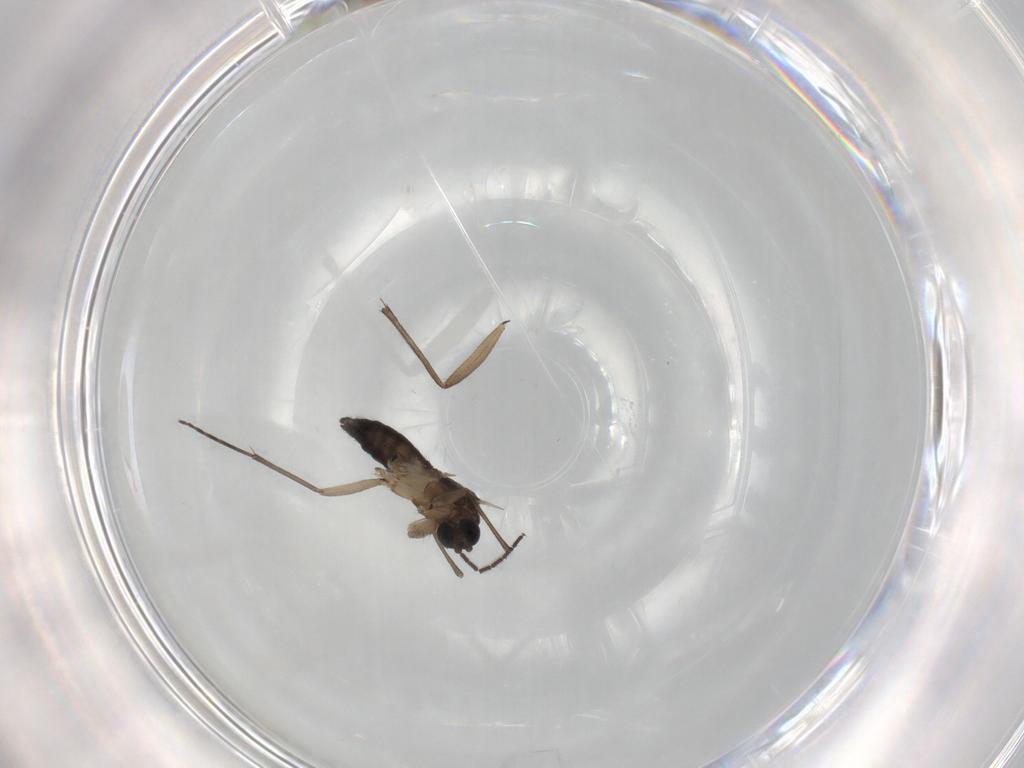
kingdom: Animalia
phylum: Arthropoda
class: Insecta
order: Diptera
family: Sciaridae
